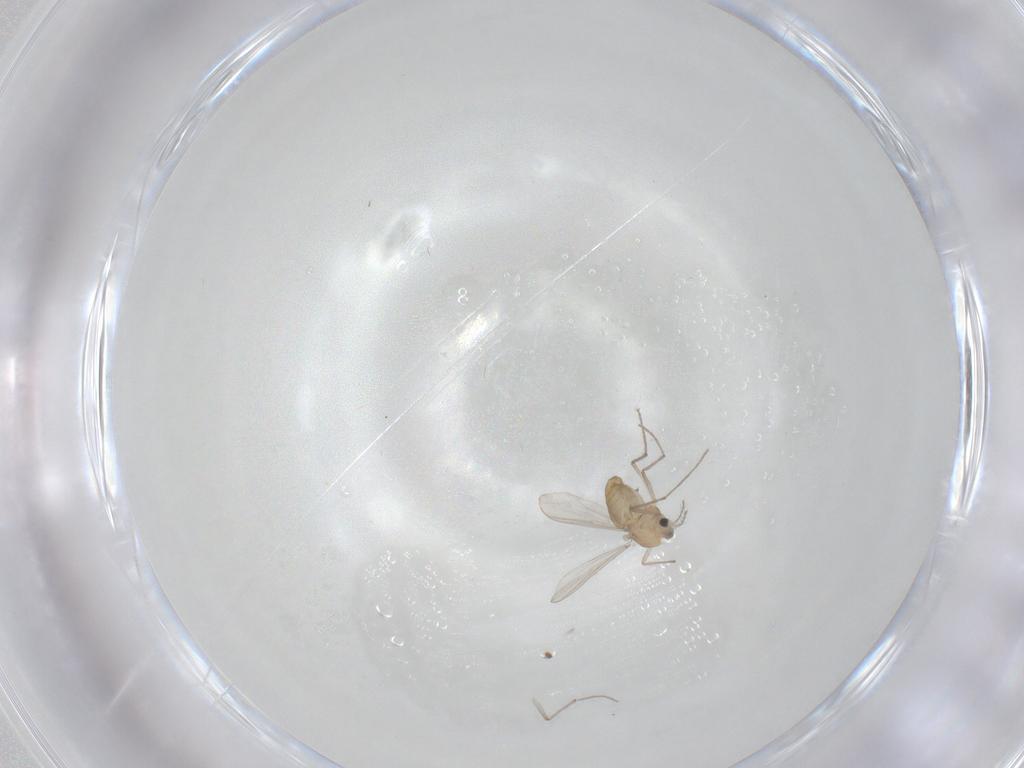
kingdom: Animalia
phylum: Arthropoda
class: Insecta
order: Diptera
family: Chironomidae
